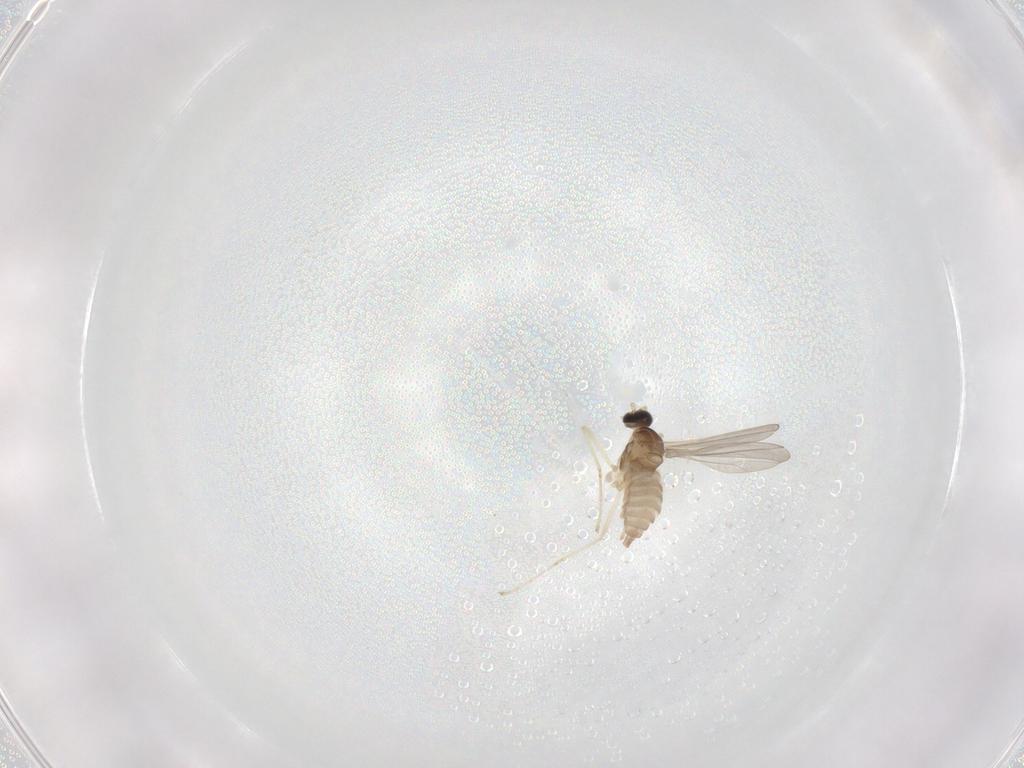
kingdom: Animalia
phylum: Arthropoda
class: Insecta
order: Diptera
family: Cecidomyiidae
